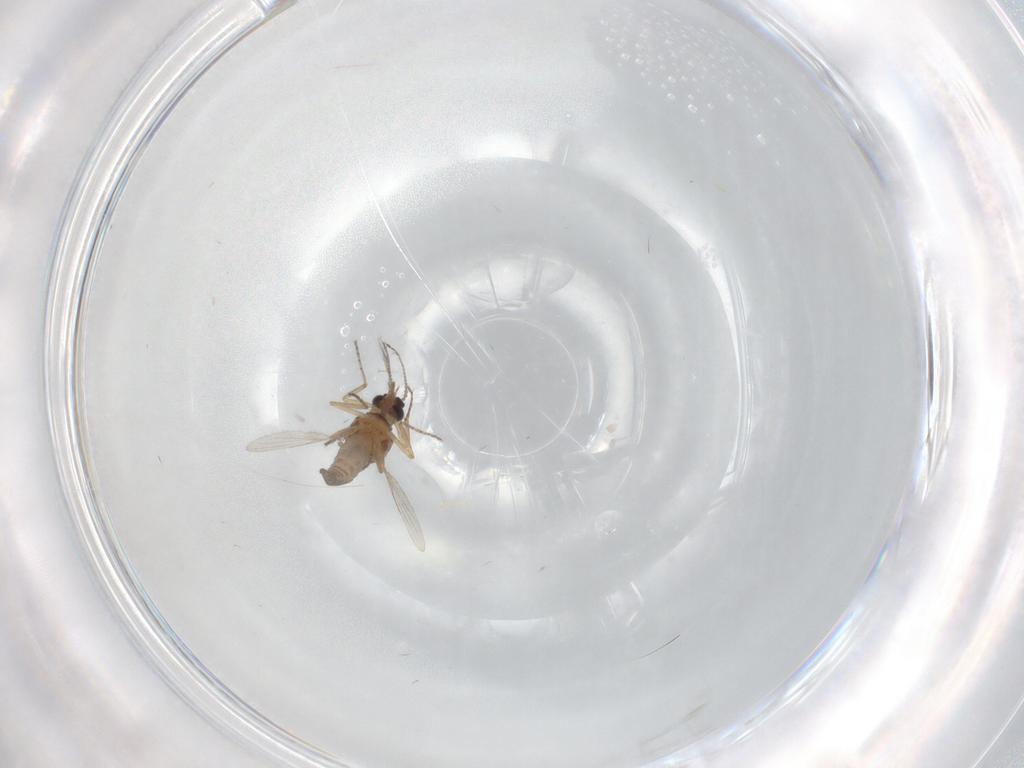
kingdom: Animalia
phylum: Arthropoda
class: Insecta
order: Diptera
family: Ceratopogonidae
